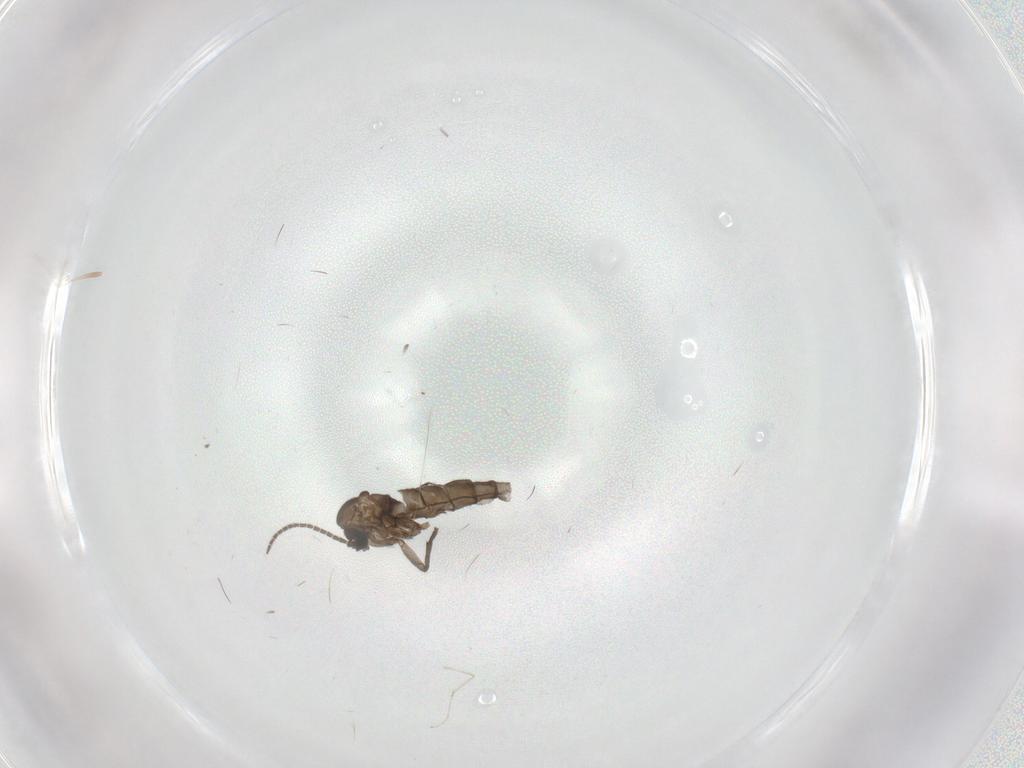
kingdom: Animalia
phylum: Arthropoda
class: Insecta
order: Diptera
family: Sciaridae
